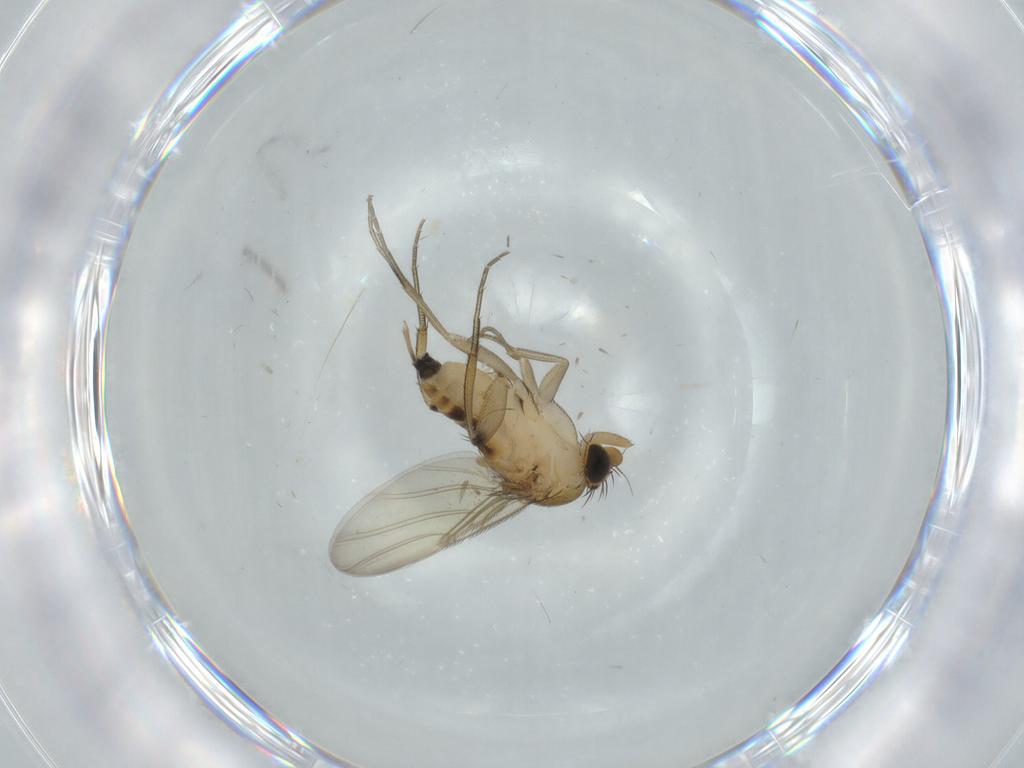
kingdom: Animalia
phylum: Arthropoda
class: Insecta
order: Diptera
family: Phoridae
